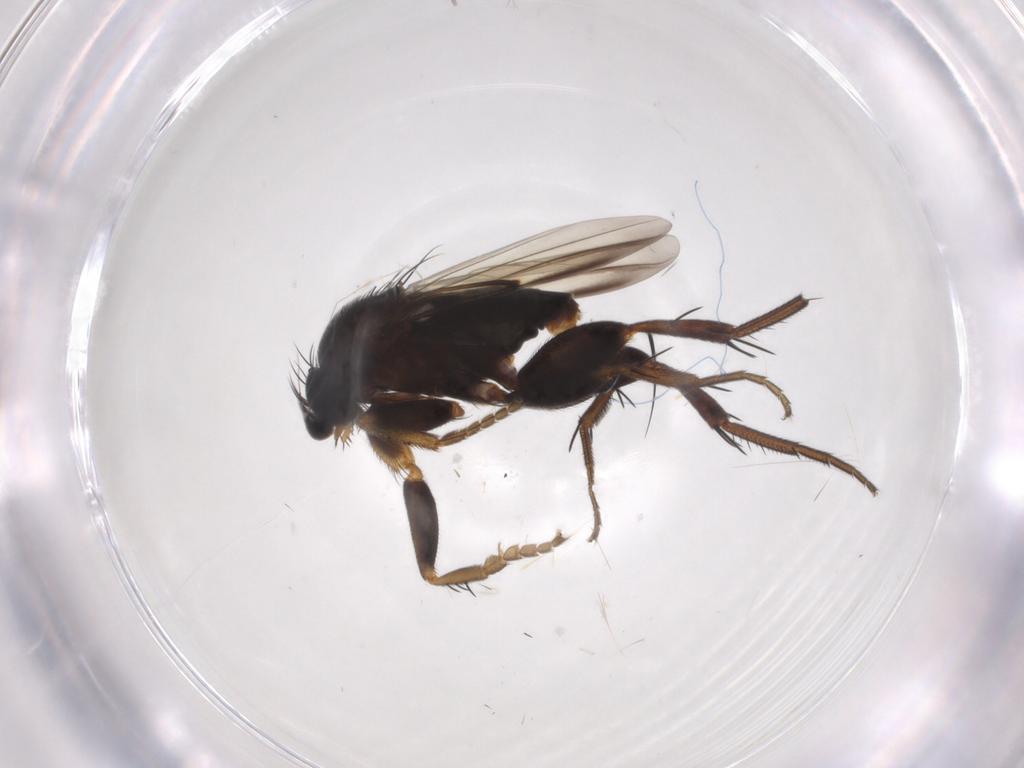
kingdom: Animalia
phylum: Arthropoda
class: Insecta
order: Diptera
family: Phoridae
